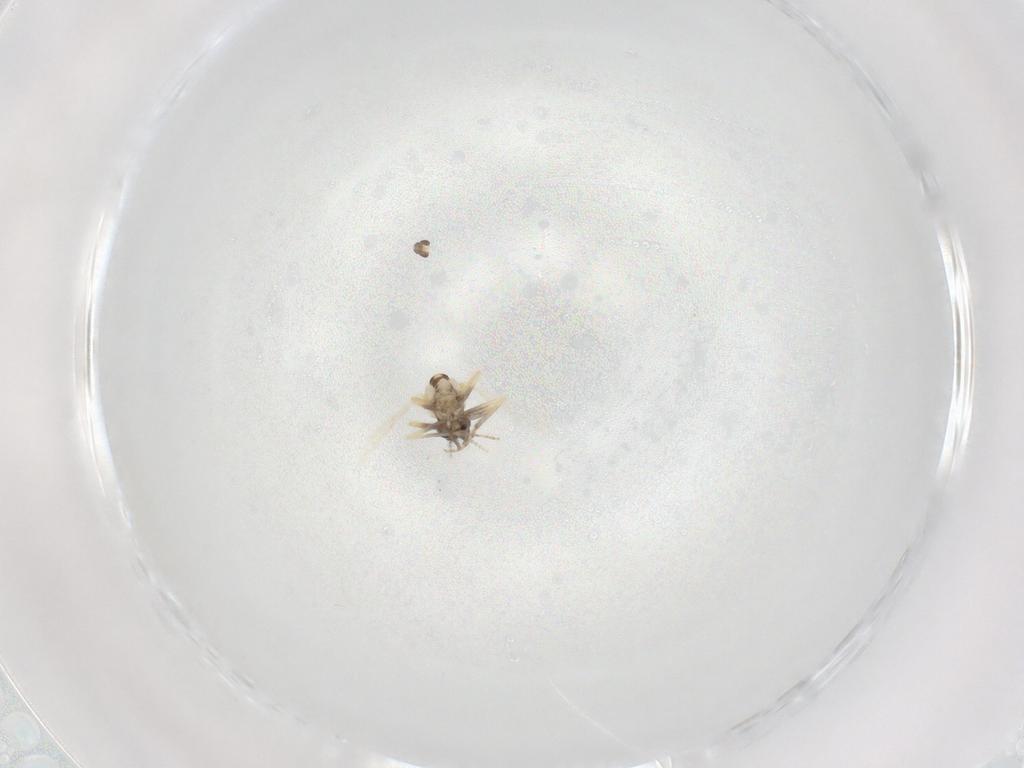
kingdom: Animalia
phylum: Arthropoda
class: Insecta
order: Diptera
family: Ceratopogonidae
